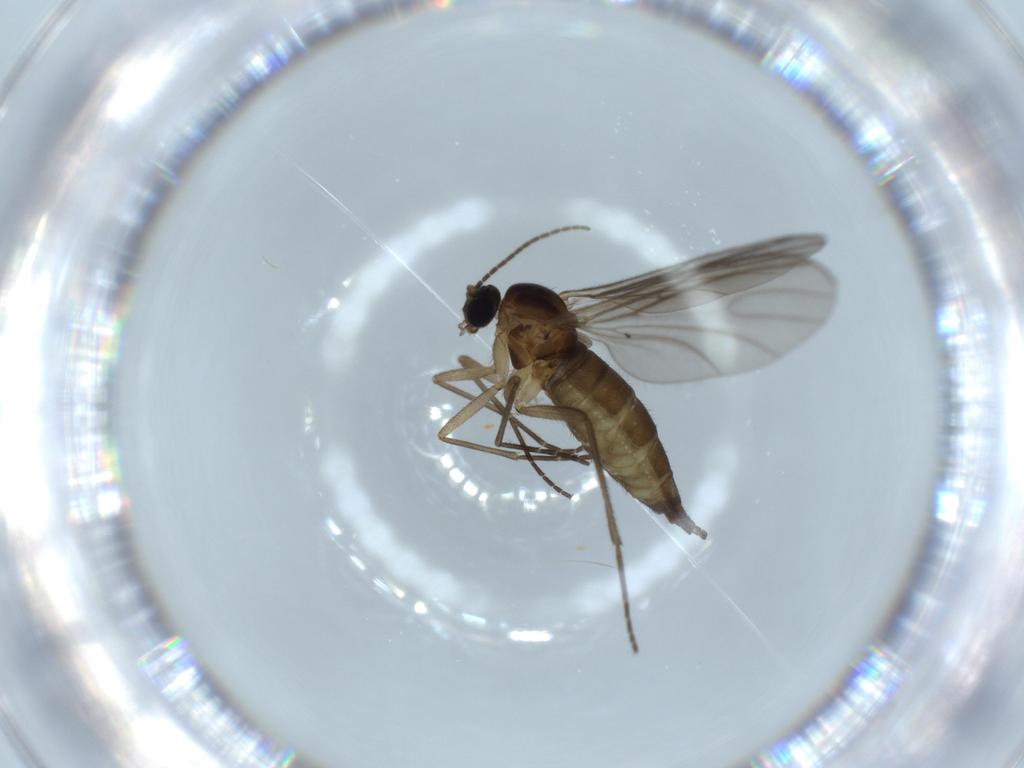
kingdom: Animalia
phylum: Arthropoda
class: Insecta
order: Diptera
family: Sciaridae
